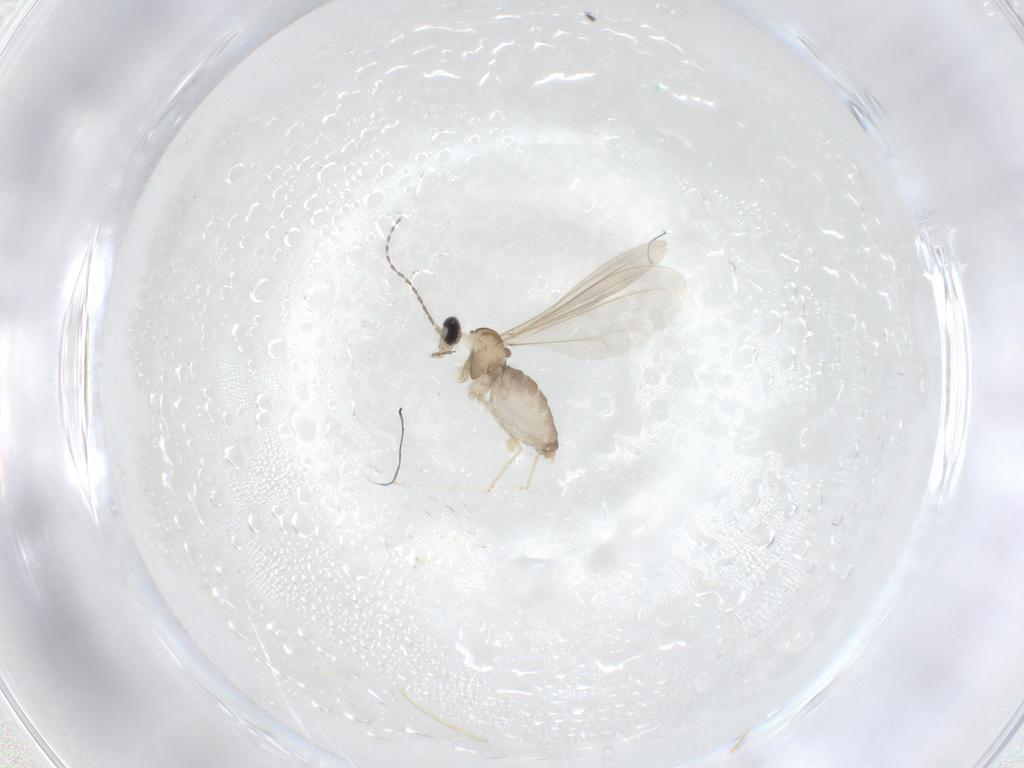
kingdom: Animalia
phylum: Arthropoda
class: Insecta
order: Diptera
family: Cecidomyiidae
